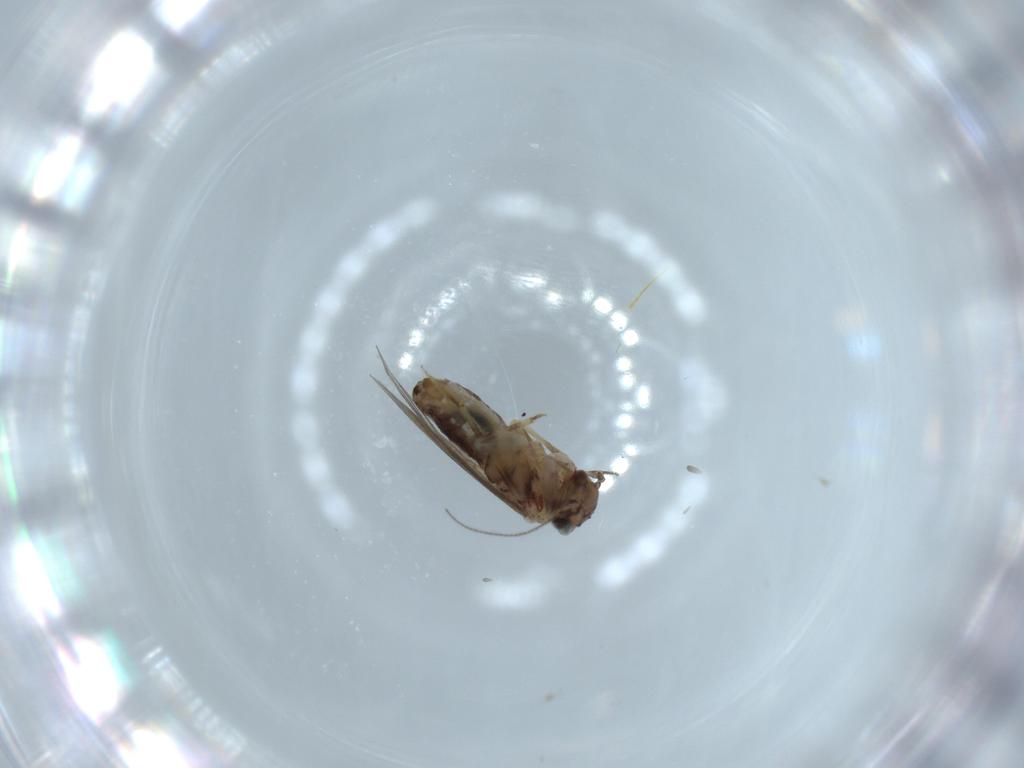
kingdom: Animalia
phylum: Arthropoda
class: Insecta
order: Psocodea
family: Lepidopsocidae
